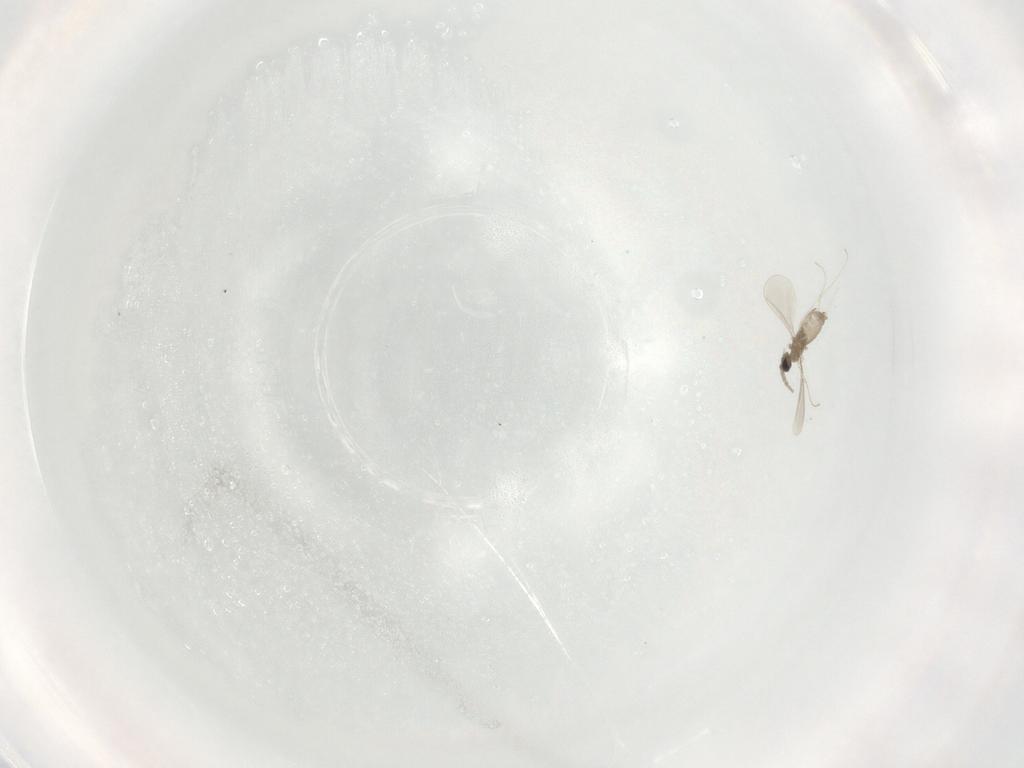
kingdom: Animalia
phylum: Arthropoda
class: Insecta
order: Diptera
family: Cecidomyiidae
